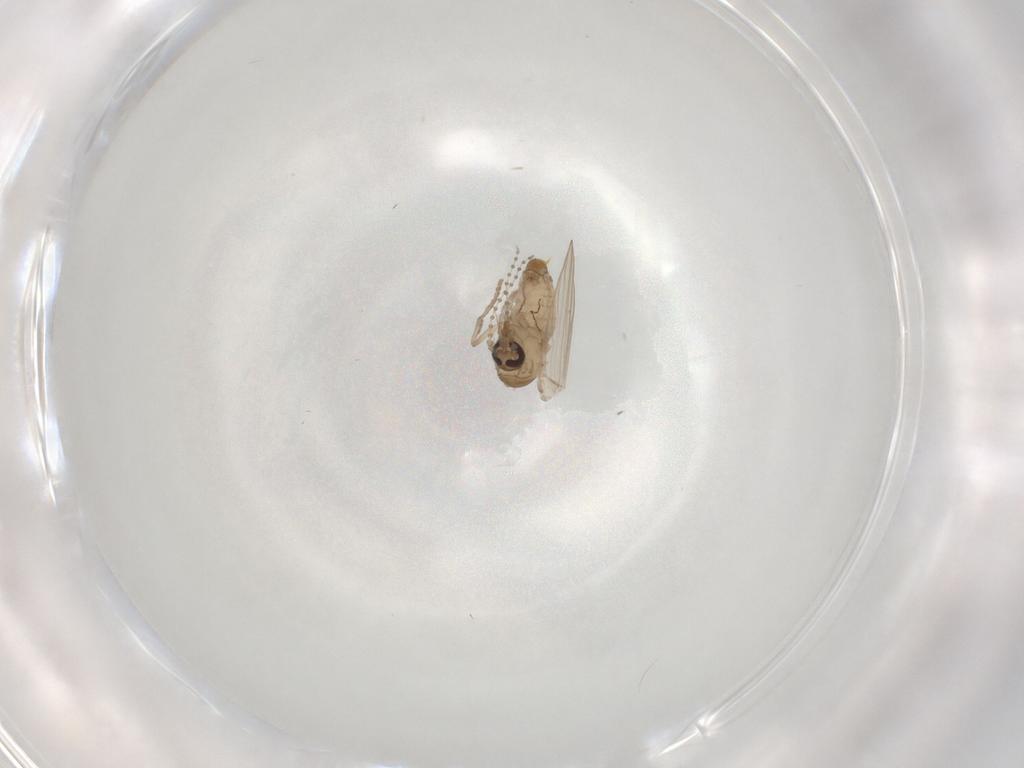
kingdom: Animalia
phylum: Arthropoda
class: Insecta
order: Diptera
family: Psychodidae
